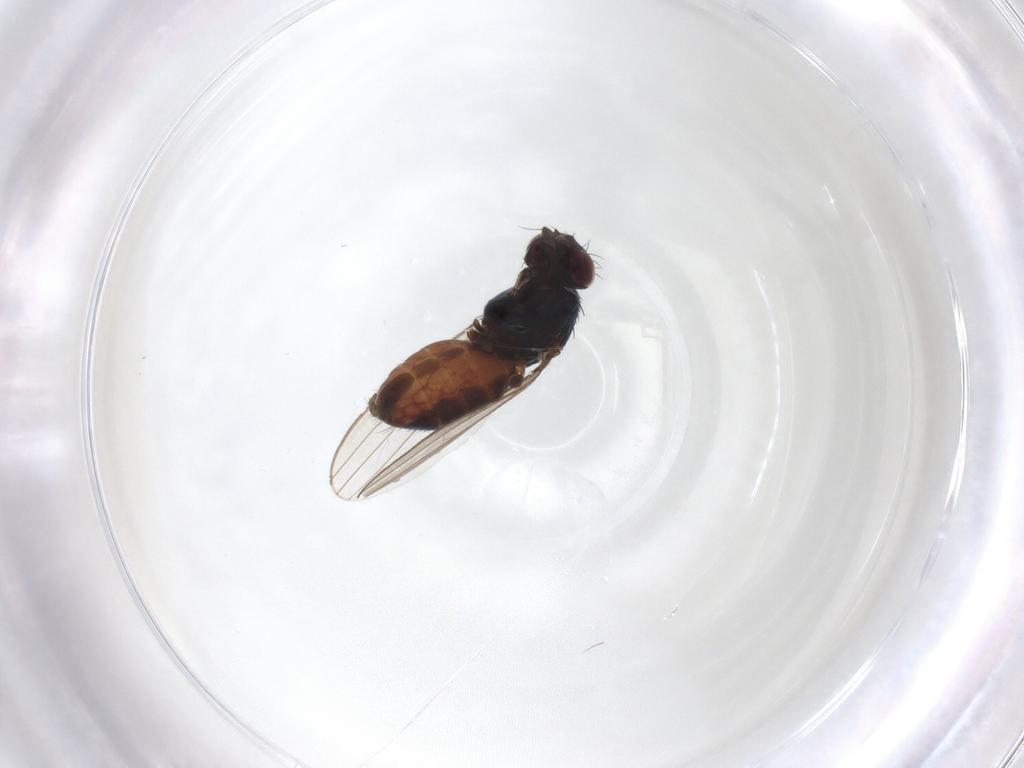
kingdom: Animalia
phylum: Arthropoda
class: Insecta
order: Diptera
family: Chloropidae
